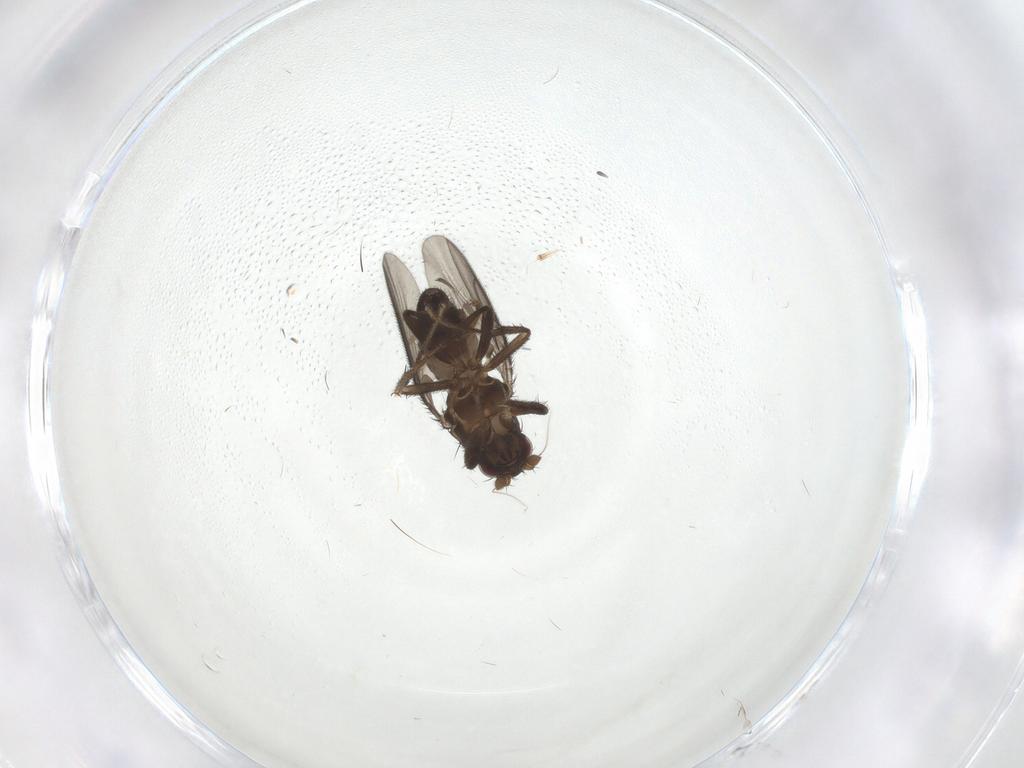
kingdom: Animalia
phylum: Arthropoda
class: Insecta
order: Diptera
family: Sphaeroceridae
